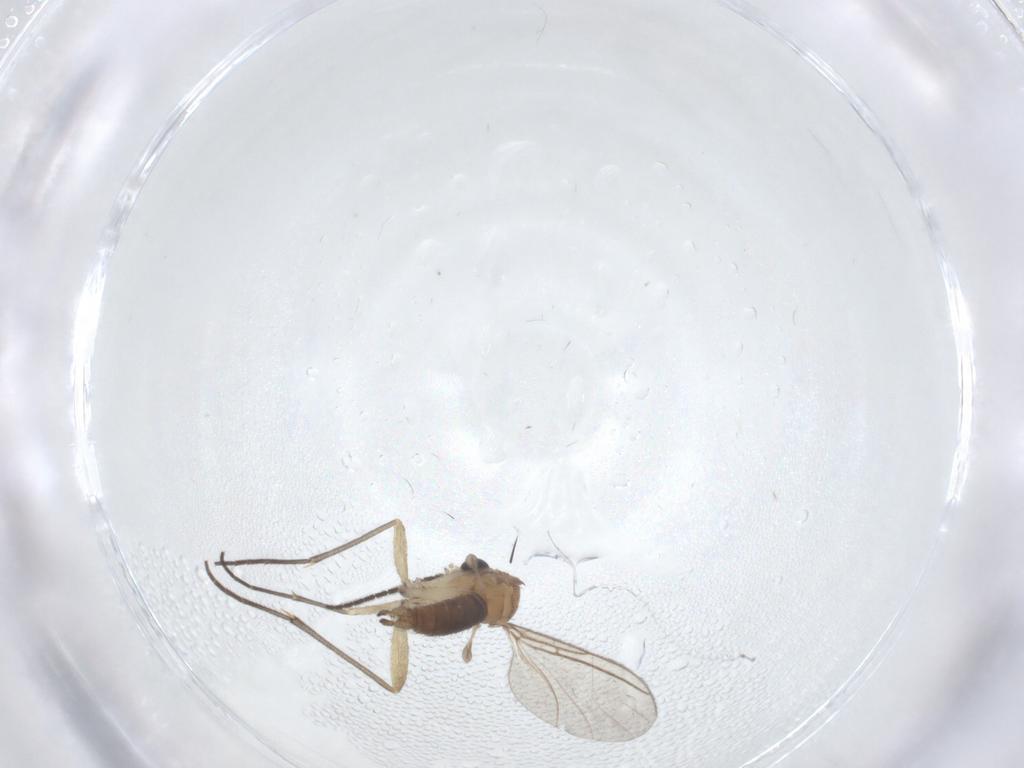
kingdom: Animalia
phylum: Arthropoda
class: Insecta
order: Diptera
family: Sciaridae
